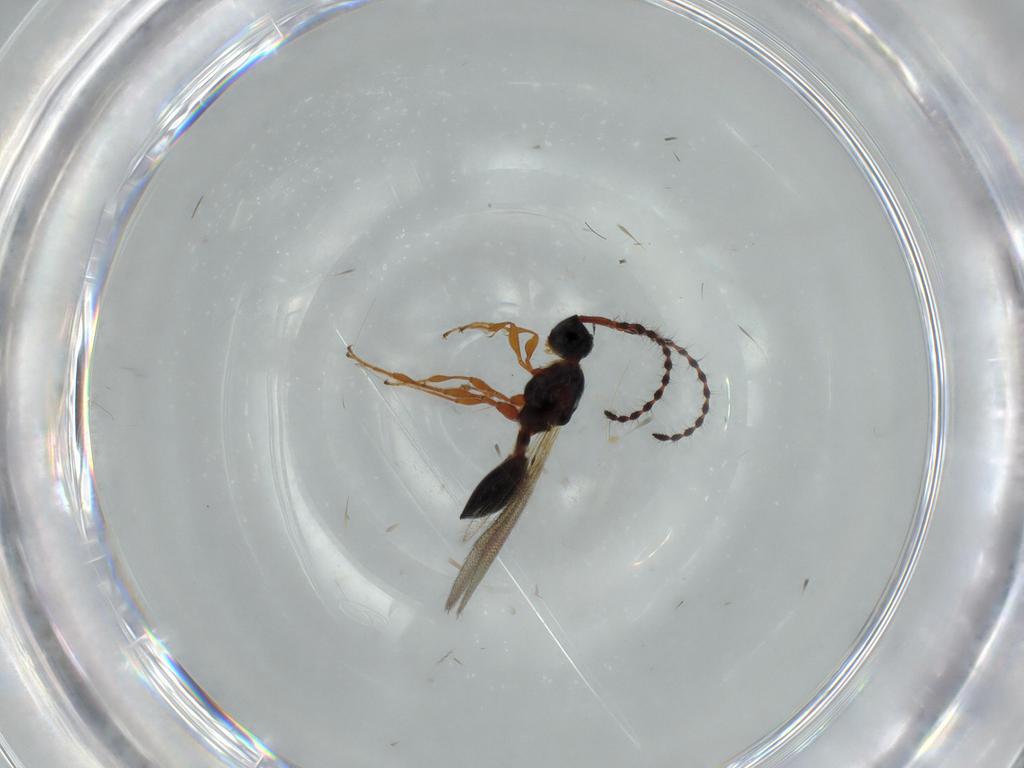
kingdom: Animalia
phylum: Arthropoda
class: Insecta
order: Hymenoptera
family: Diapriidae
